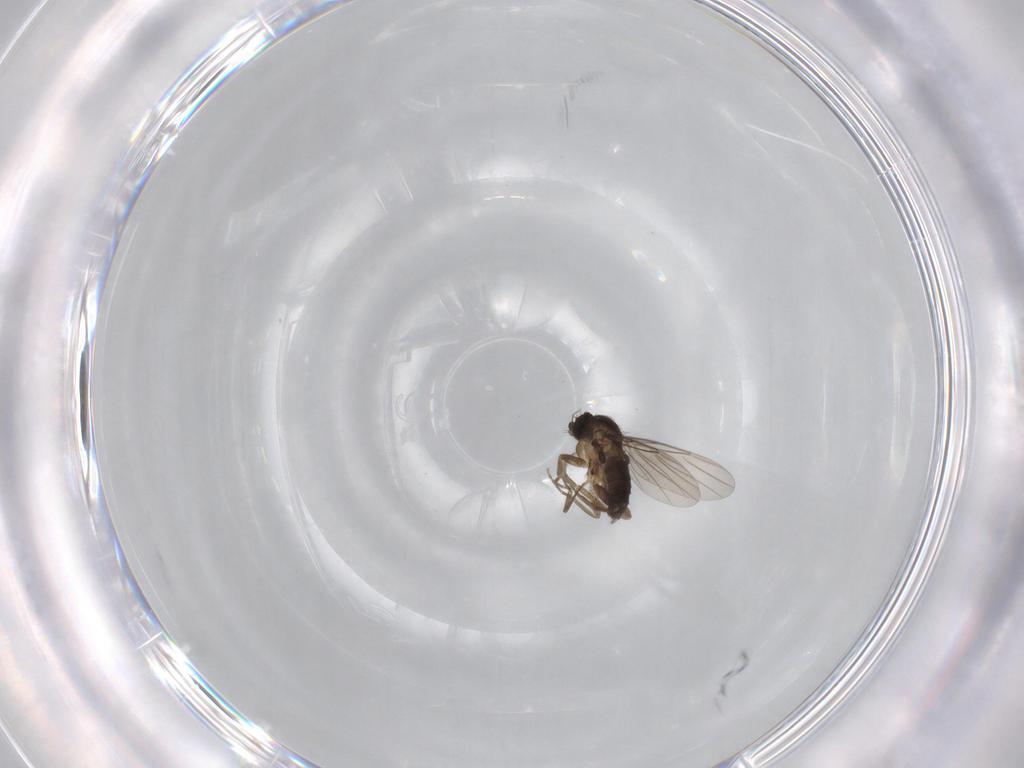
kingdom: Animalia
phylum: Arthropoda
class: Insecta
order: Diptera
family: Phoridae
